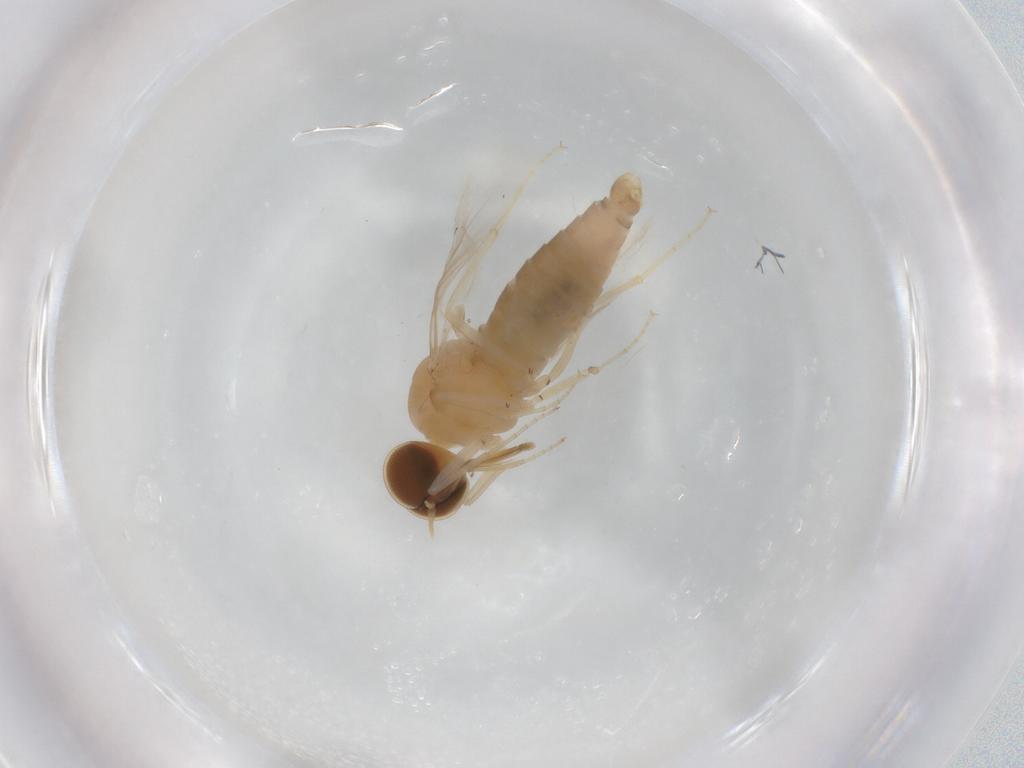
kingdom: Animalia
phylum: Arthropoda
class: Insecta
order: Diptera
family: Scenopinidae
